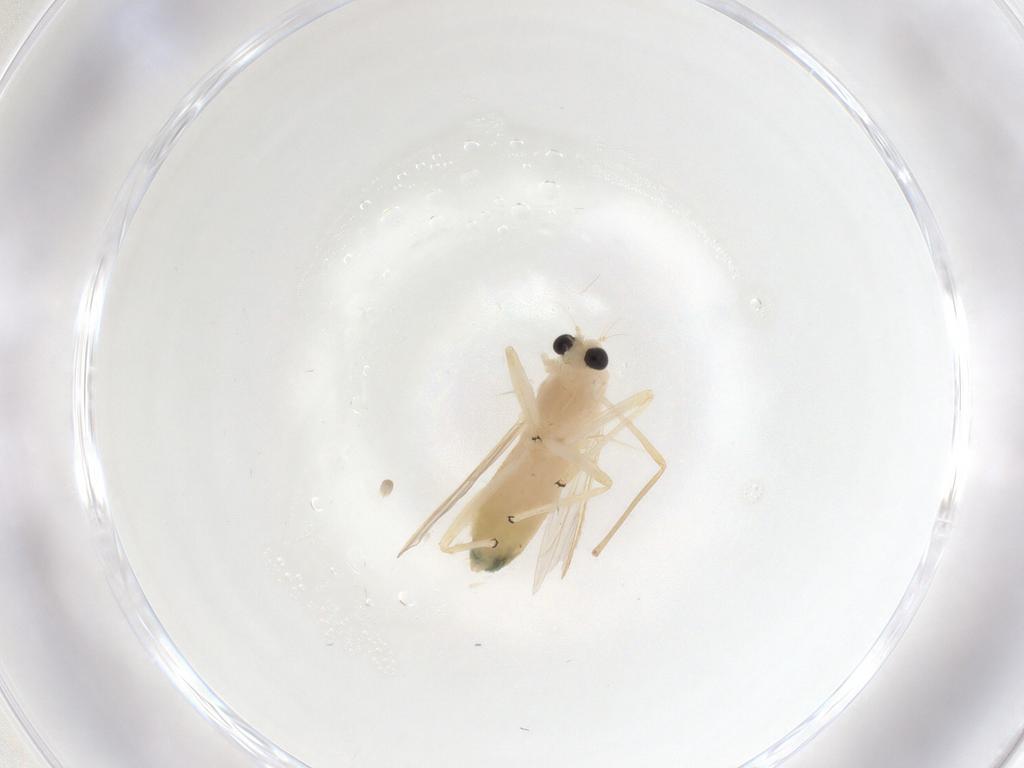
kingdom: Animalia
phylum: Arthropoda
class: Insecta
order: Diptera
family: Chironomidae
